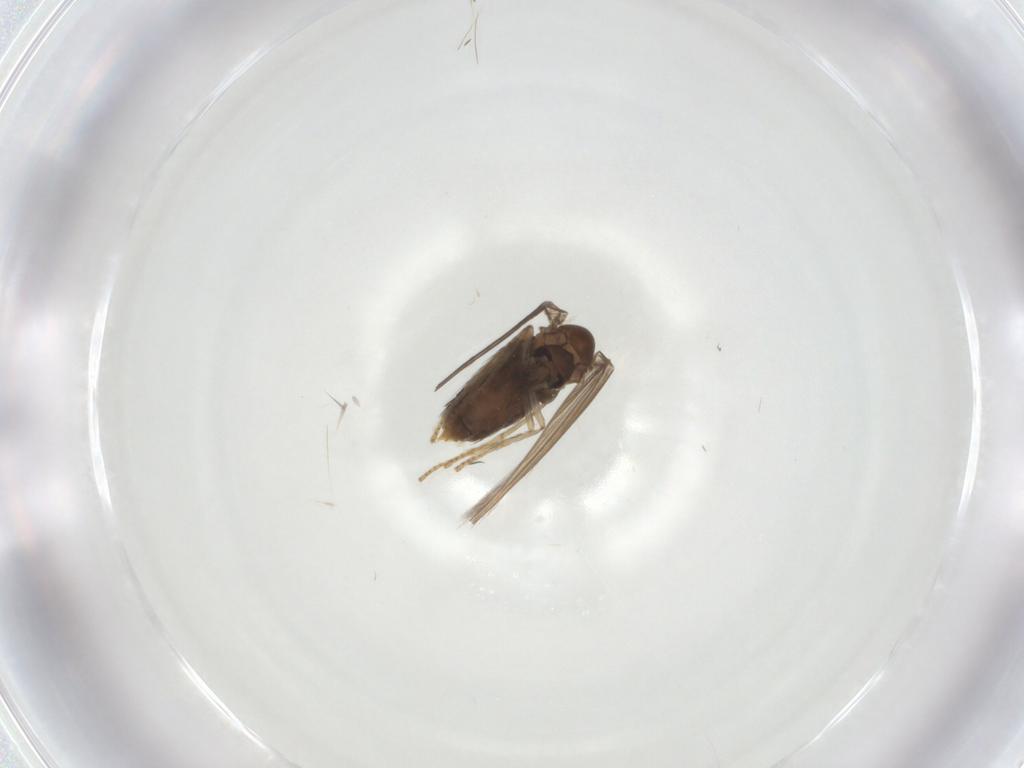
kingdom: Animalia
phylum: Arthropoda
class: Insecta
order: Diptera
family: Psychodidae
